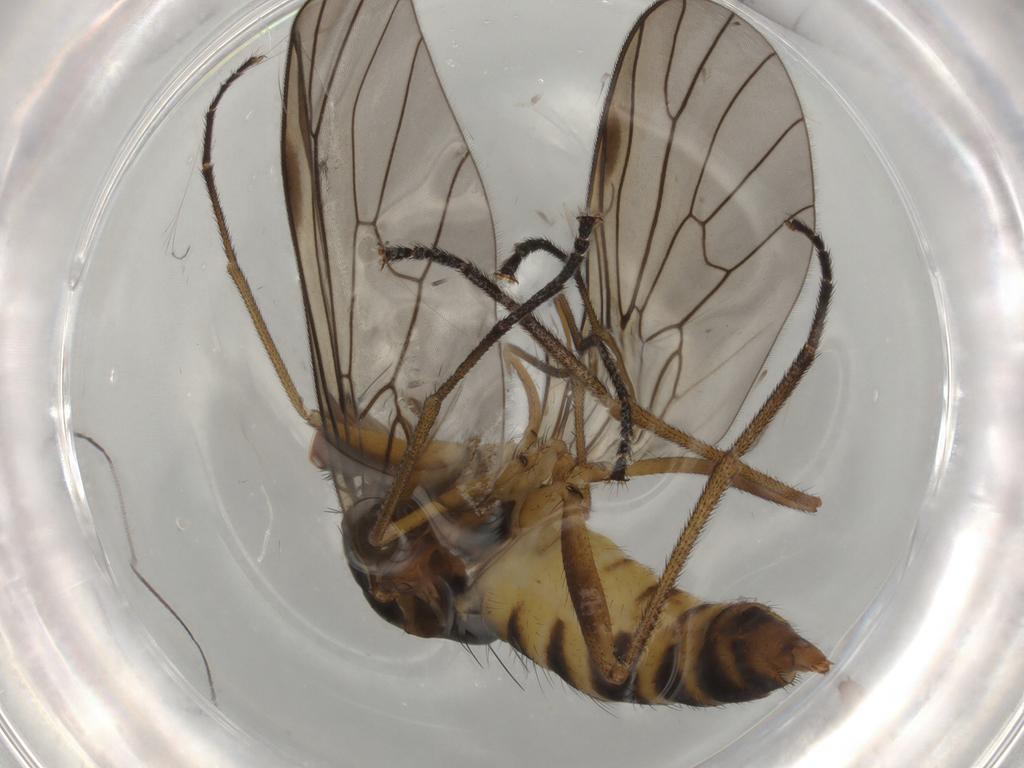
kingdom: Animalia
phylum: Arthropoda
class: Insecta
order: Diptera
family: Brachystomatidae
